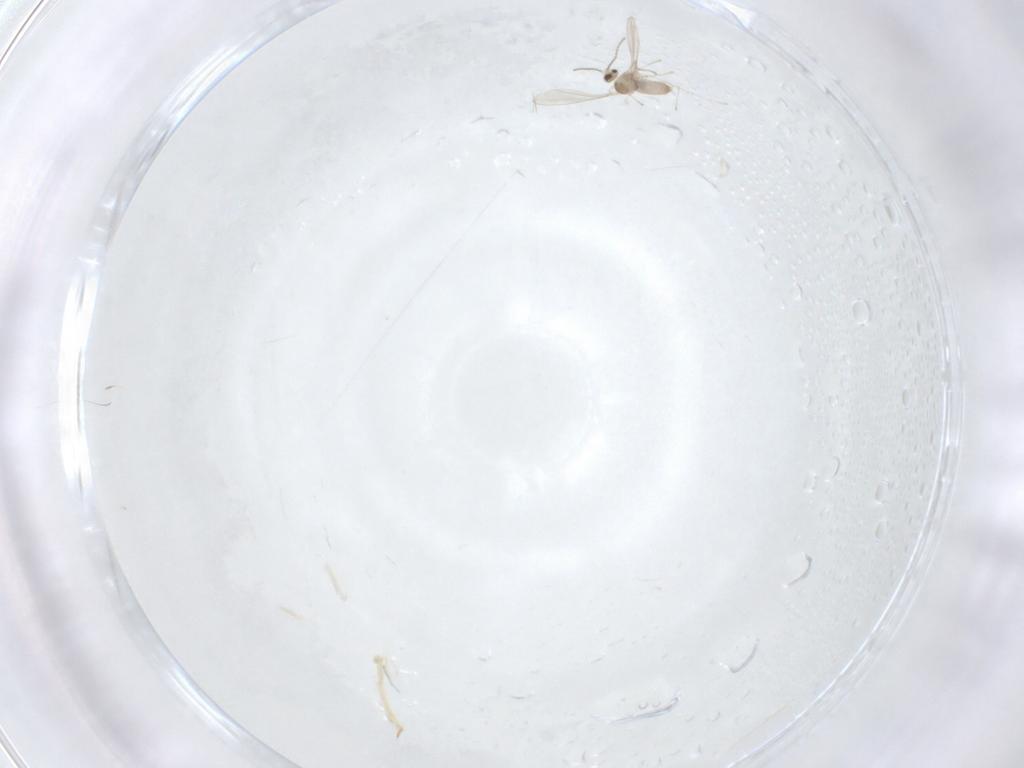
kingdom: Animalia
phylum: Arthropoda
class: Insecta
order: Diptera
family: Cecidomyiidae
